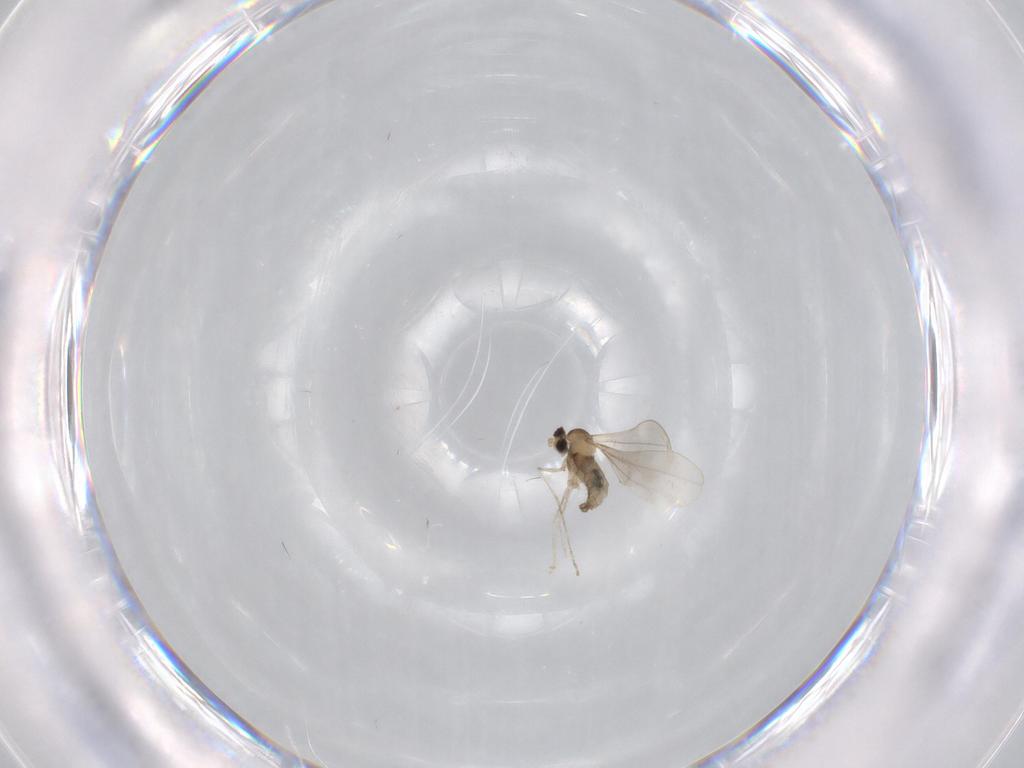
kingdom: Animalia
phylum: Arthropoda
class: Insecta
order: Diptera
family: Cecidomyiidae
